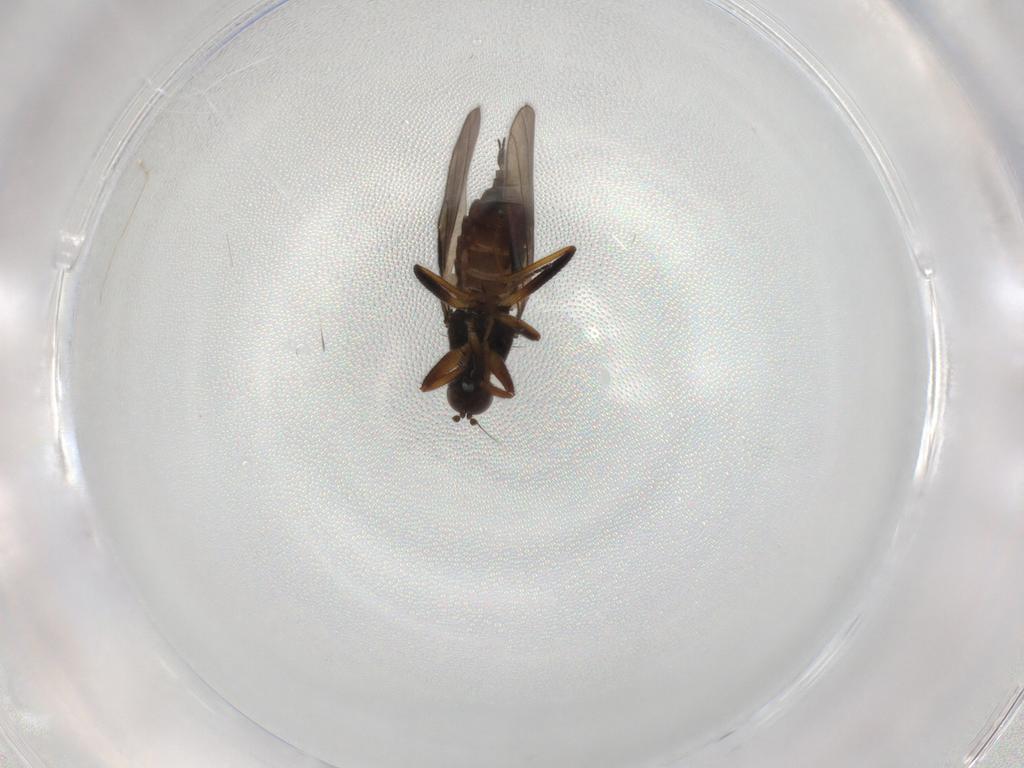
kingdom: Animalia
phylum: Arthropoda
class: Insecta
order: Diptera
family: Hybotidae
